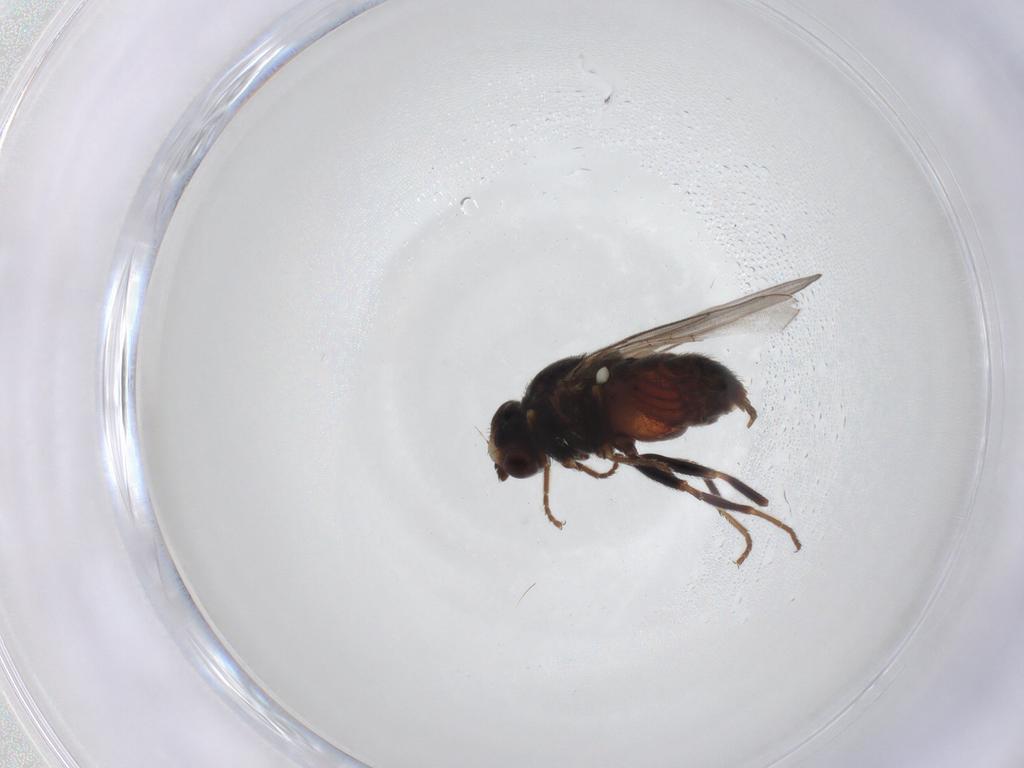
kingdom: Animalia
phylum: Arthropoda
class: Insecta
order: Diptera
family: Chloropidae
